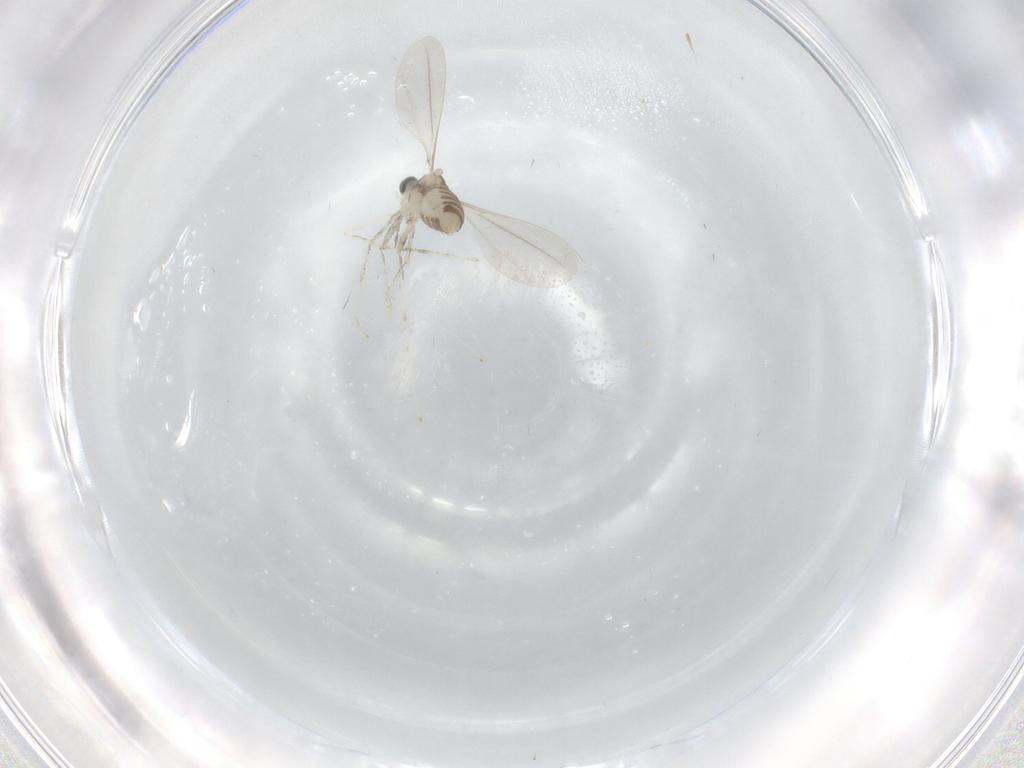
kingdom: Animalia
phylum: Arthropoda
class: Insecta
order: Diptera
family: Cecidomyiidae
